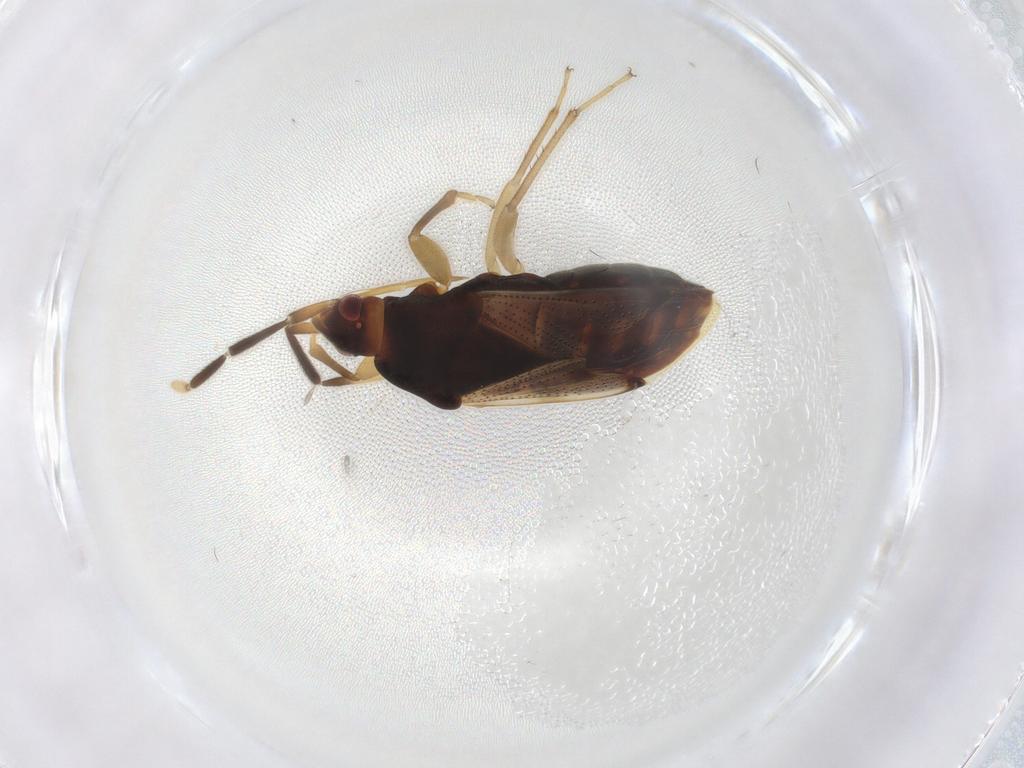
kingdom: Animalia
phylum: Arthropoda
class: Insecta
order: Hemiptera
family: Rhyparochromidae
